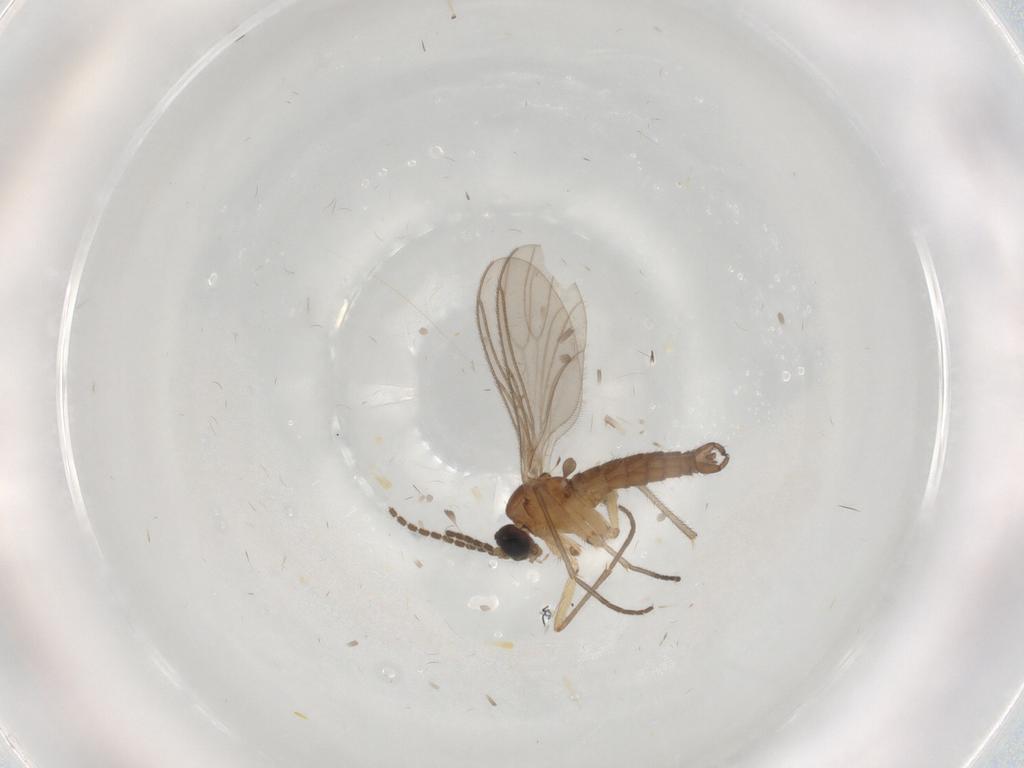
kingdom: Animalia
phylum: Arthropoda
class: Insecta
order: Diptera
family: Sciaridae
